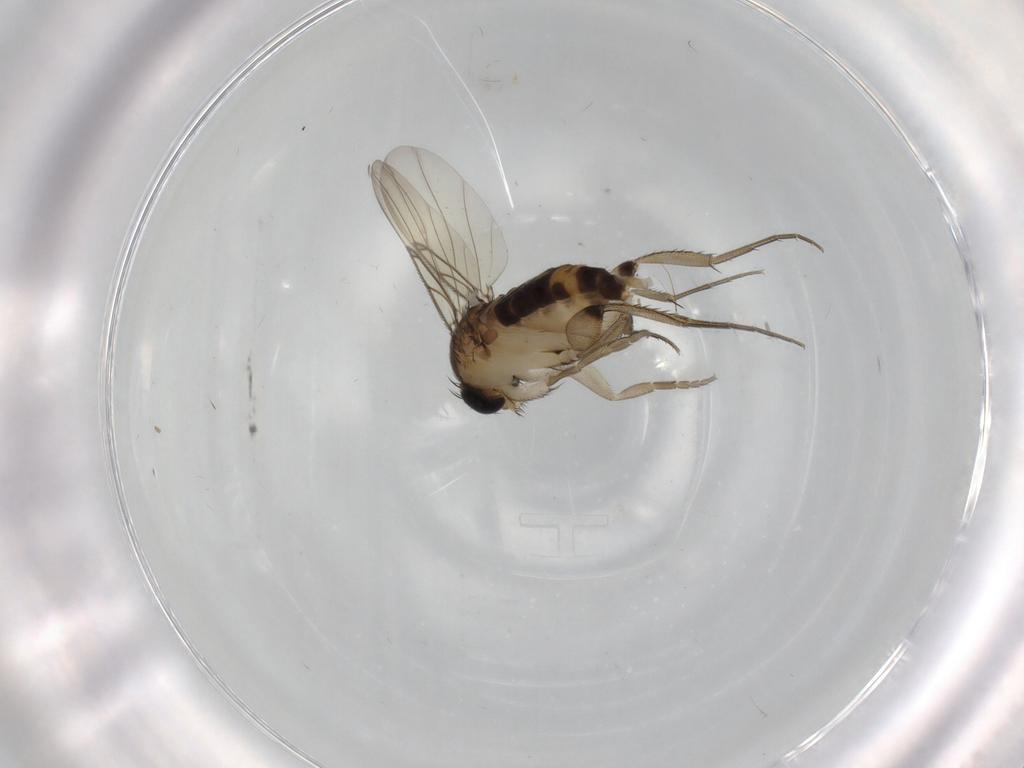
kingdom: Animalia
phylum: Arthropoda
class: Insecta
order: Diptera
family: Phoridae
